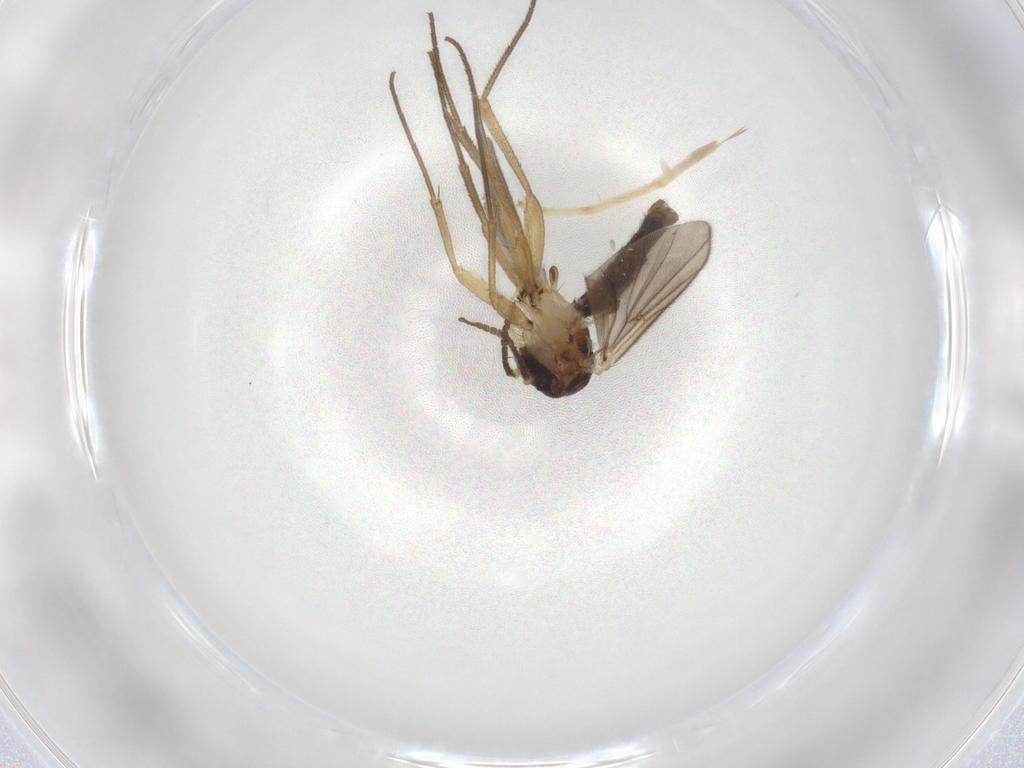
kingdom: Animalia
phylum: Arthropoda
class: Insecta
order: Diptera
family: Mycetophilidae
